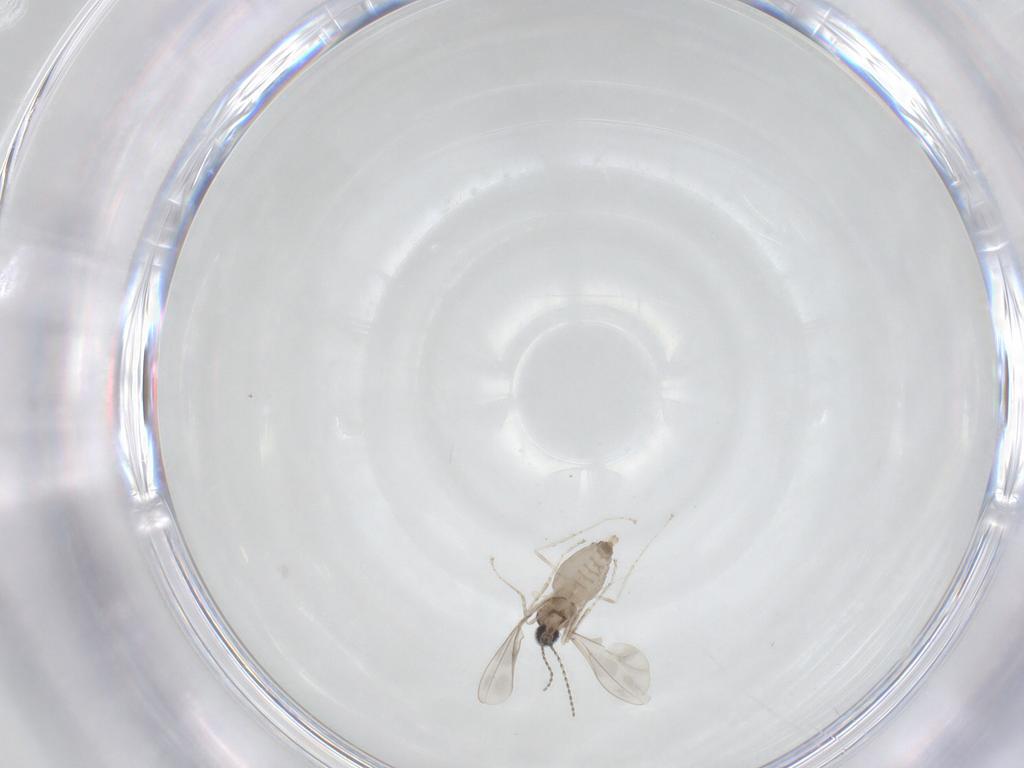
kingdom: Animalia
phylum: Arthropoda
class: Insecta
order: Diptera
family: Cecidomyiidae
